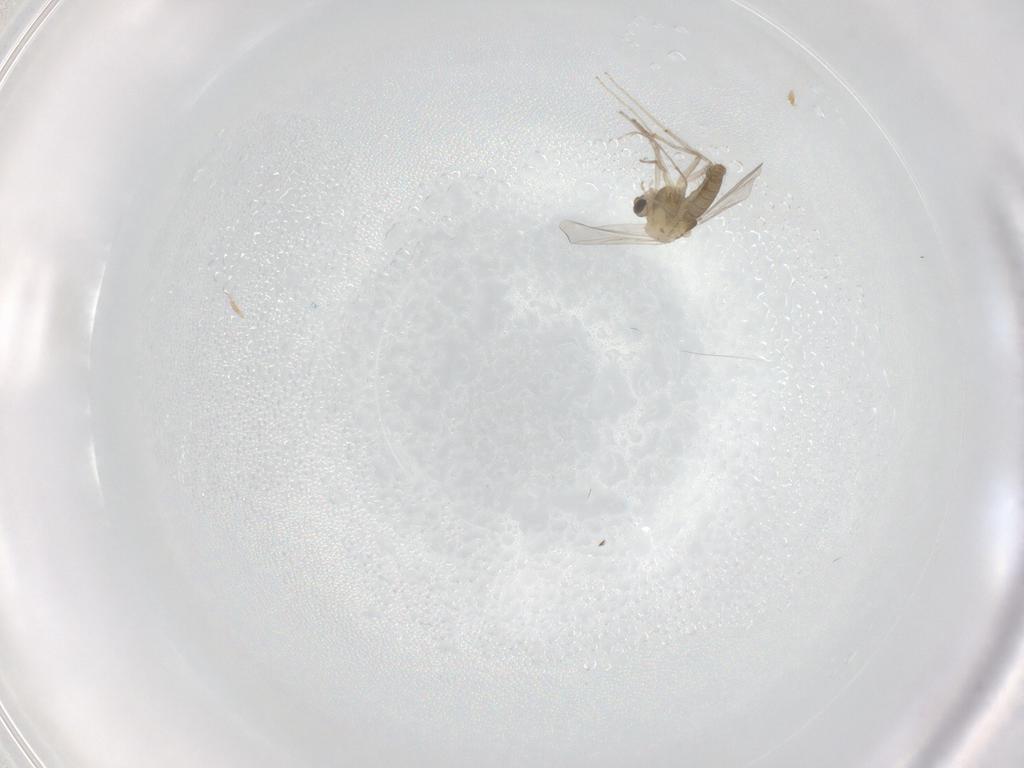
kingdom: Animalia
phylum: Arthropoda
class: Insecta
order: Diptera
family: Chironomidae
